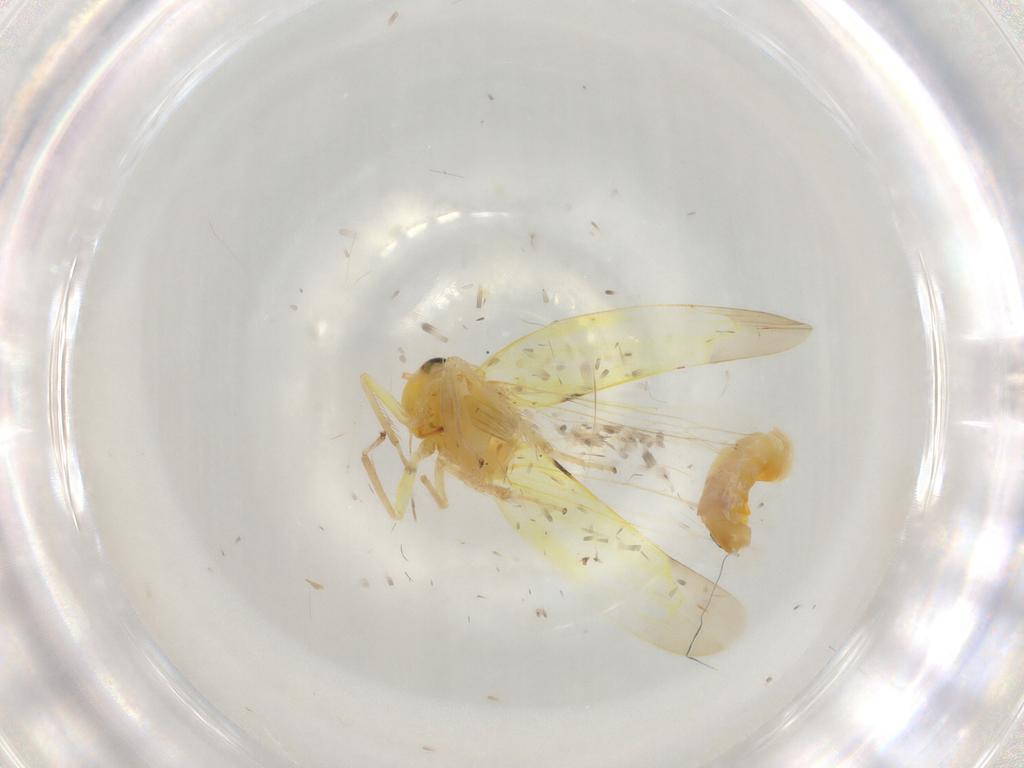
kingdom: Animalia
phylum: Arthropoda
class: Insecta
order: Hemiptera
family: Cicadellidae
